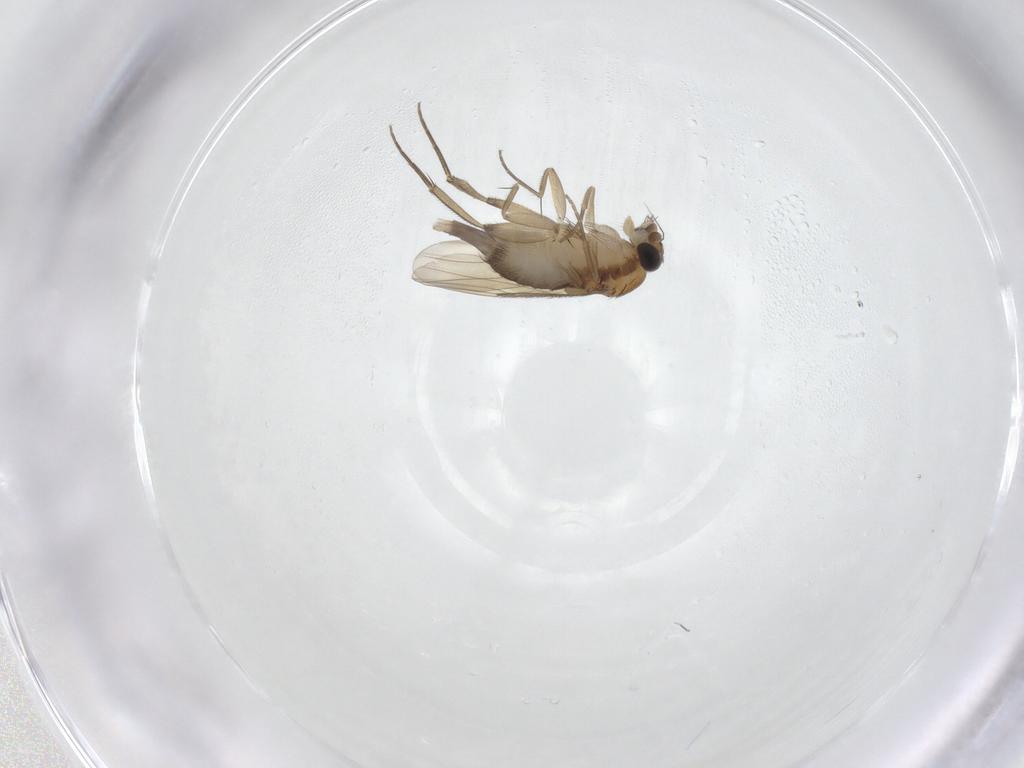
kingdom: Animalia
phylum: Arthropoda
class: Insecta
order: Diptera
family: Phoridae
